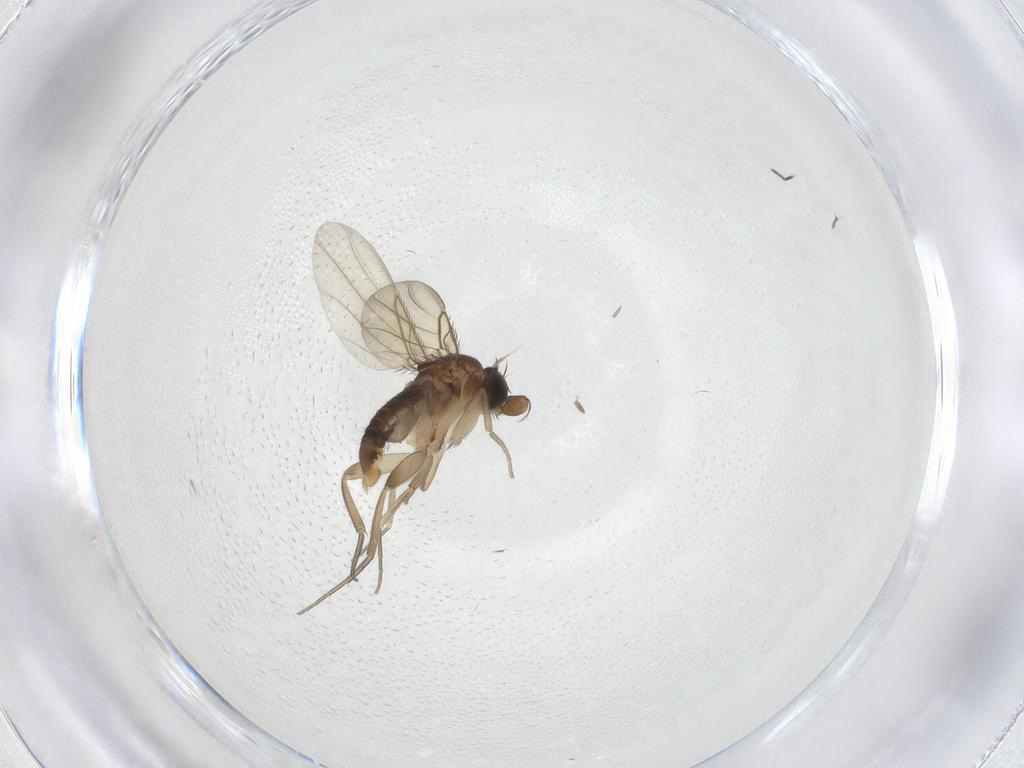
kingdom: Animalia
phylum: Arthropoda
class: Insecta
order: Diptera
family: Phoridae
